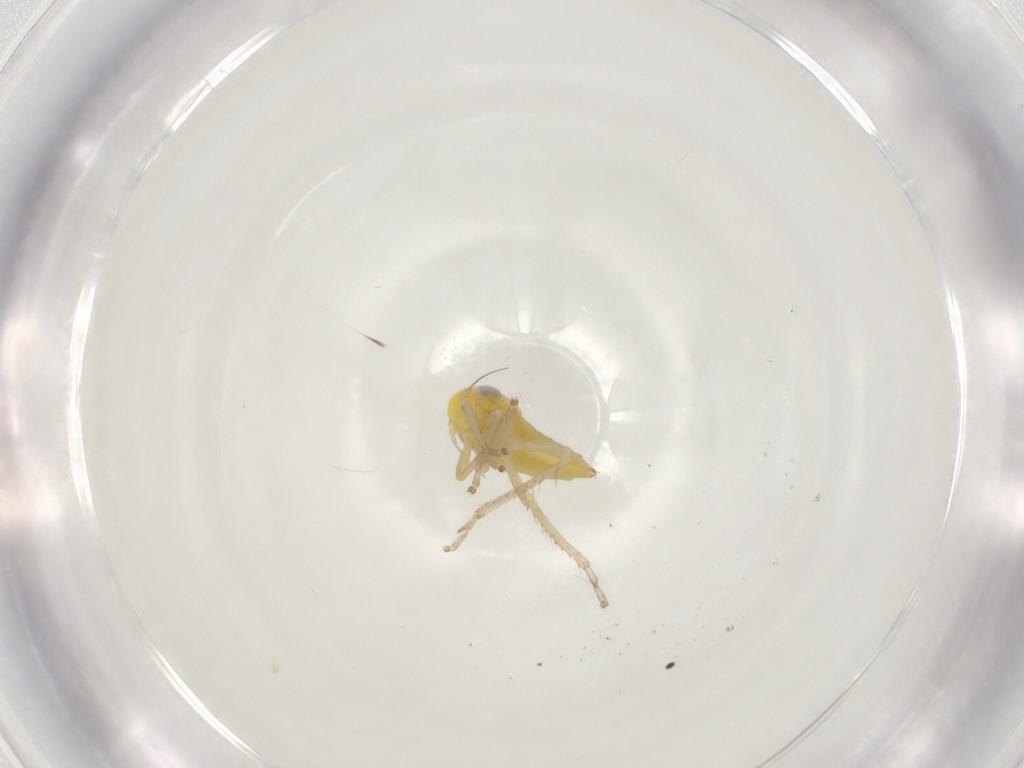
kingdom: Animalia
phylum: Arthropoda
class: Insecta
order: Hemiptera
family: Cicadellidae
